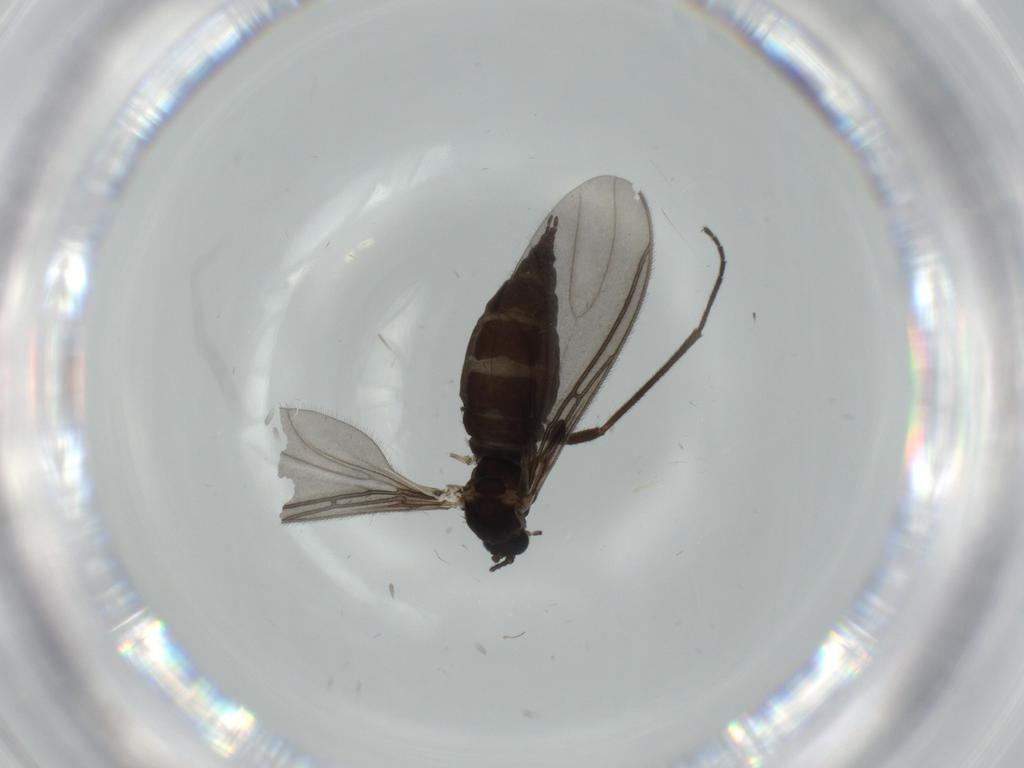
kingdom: Animalia
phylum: Arthropoda
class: Insecta
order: Diptera
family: Sciaridae
